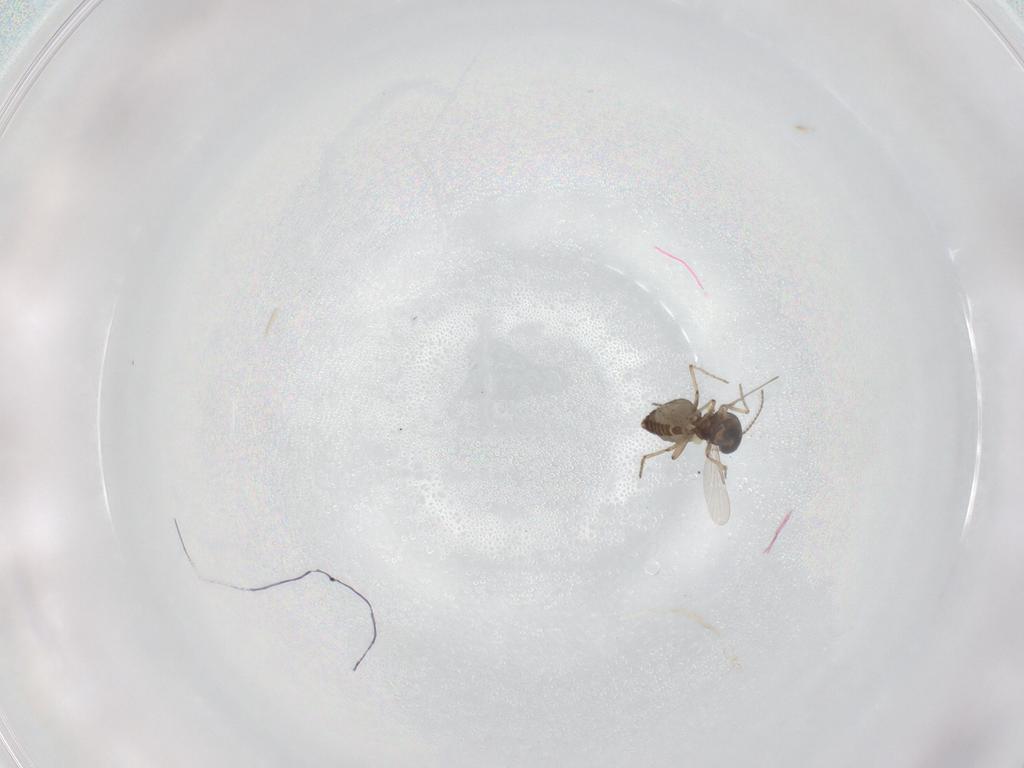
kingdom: Animalia
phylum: Arthropoda
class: Insecta
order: Diptera
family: Ceratopogonidae
